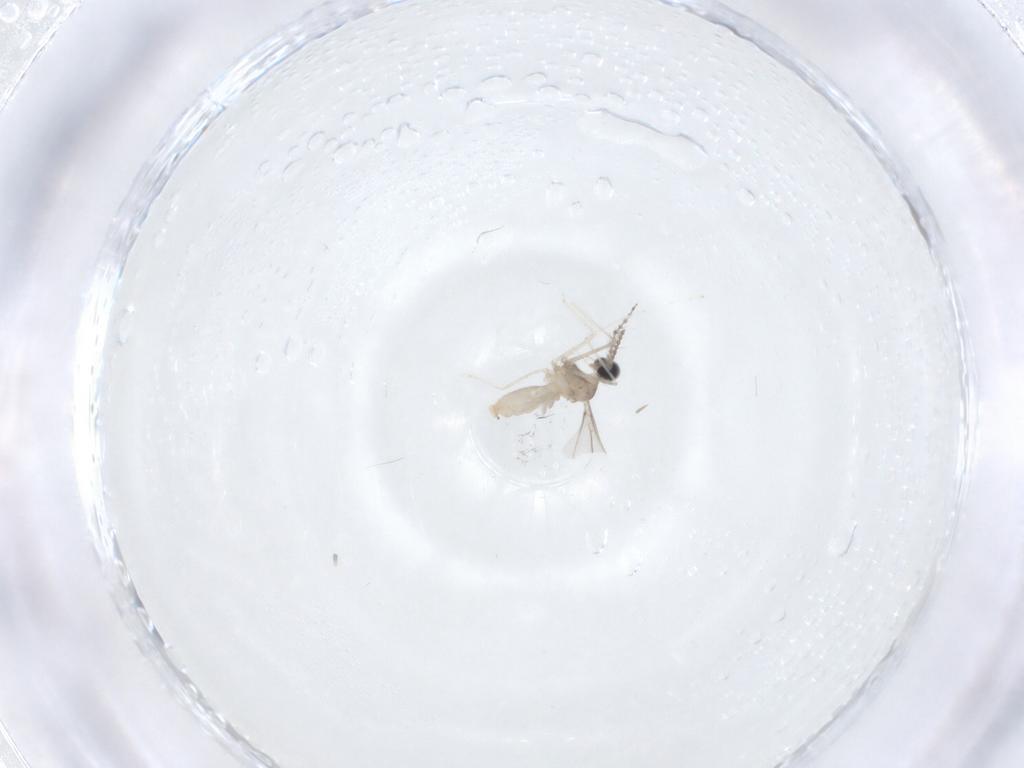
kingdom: Animalia
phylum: Arthropoda
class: Insecta
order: Diptera
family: Cecidomyiidae
